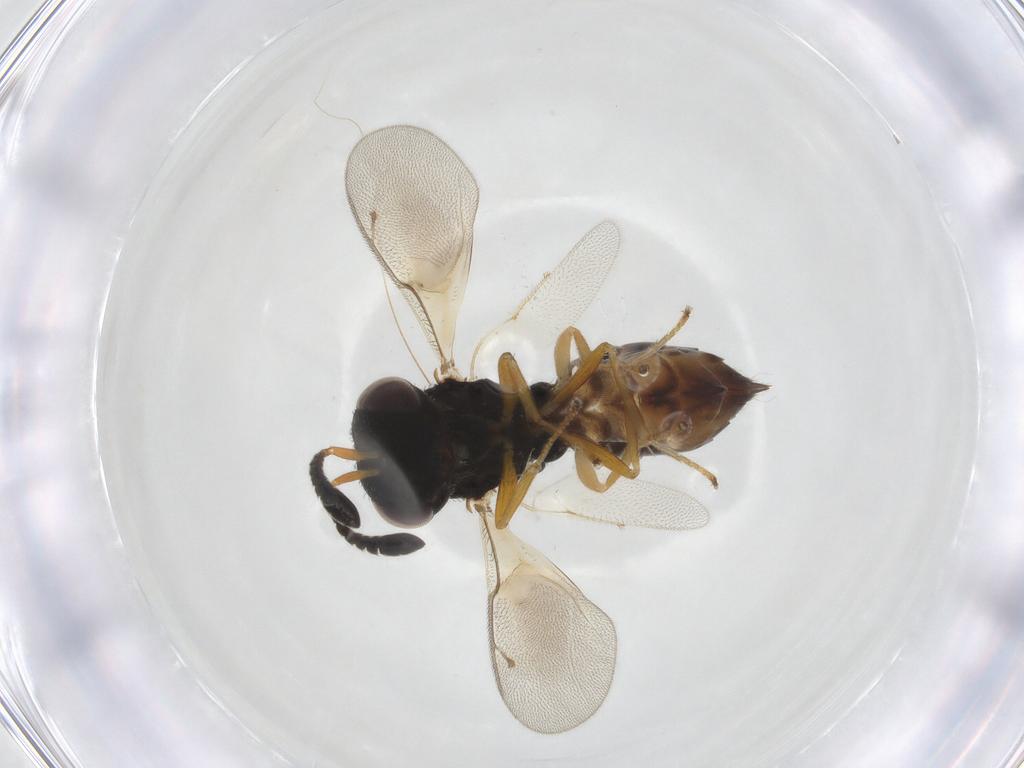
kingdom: Animalia
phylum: Arthropoda
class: Insecta
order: Hymenoptera
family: Pteromalidae
